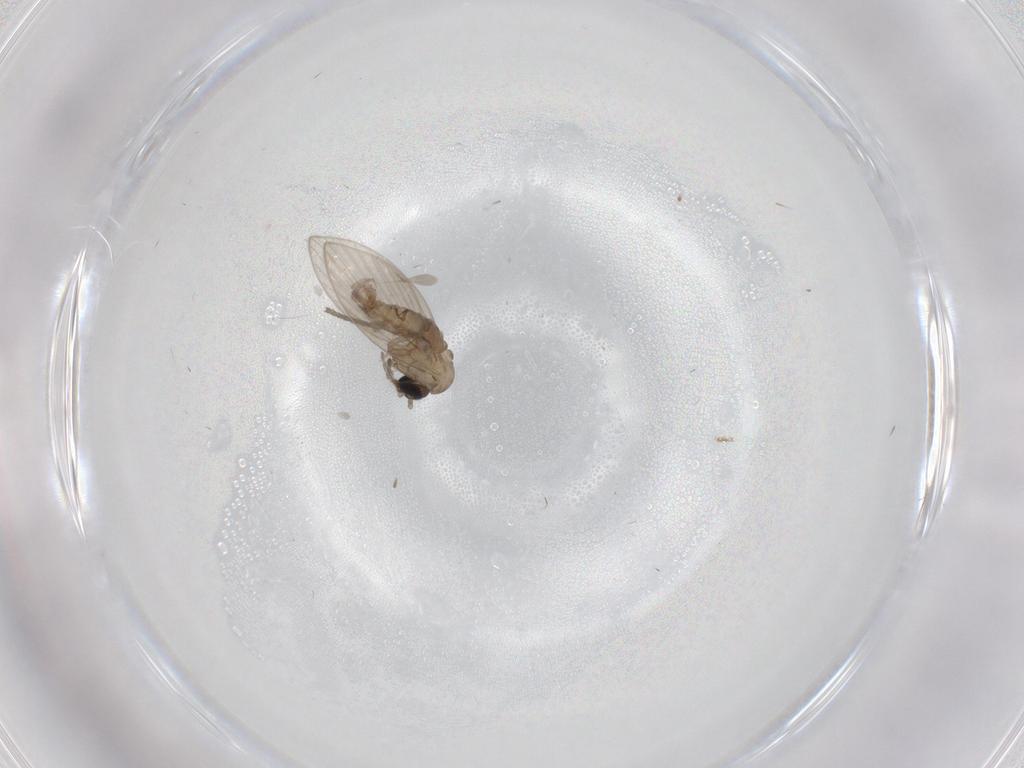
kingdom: Animalia
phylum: Arthropoda
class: Insecta
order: Diptera
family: Psychodidae
